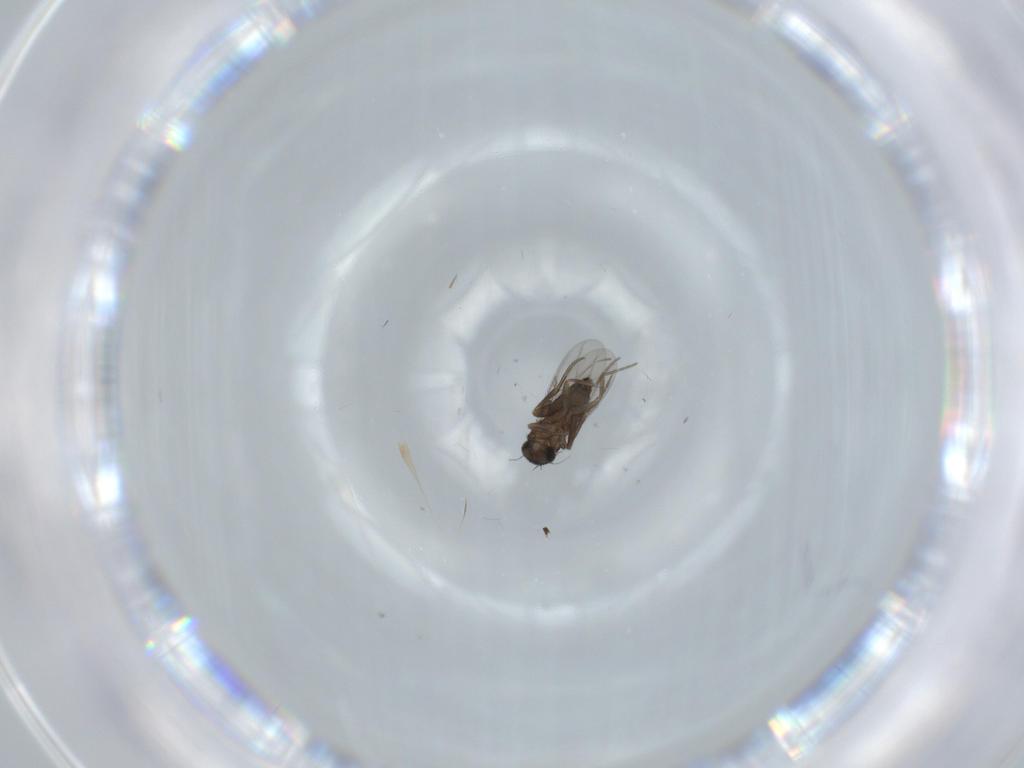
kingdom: Animalia
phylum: Arthropoda
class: Insecta
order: Diptera
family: Phoridae
